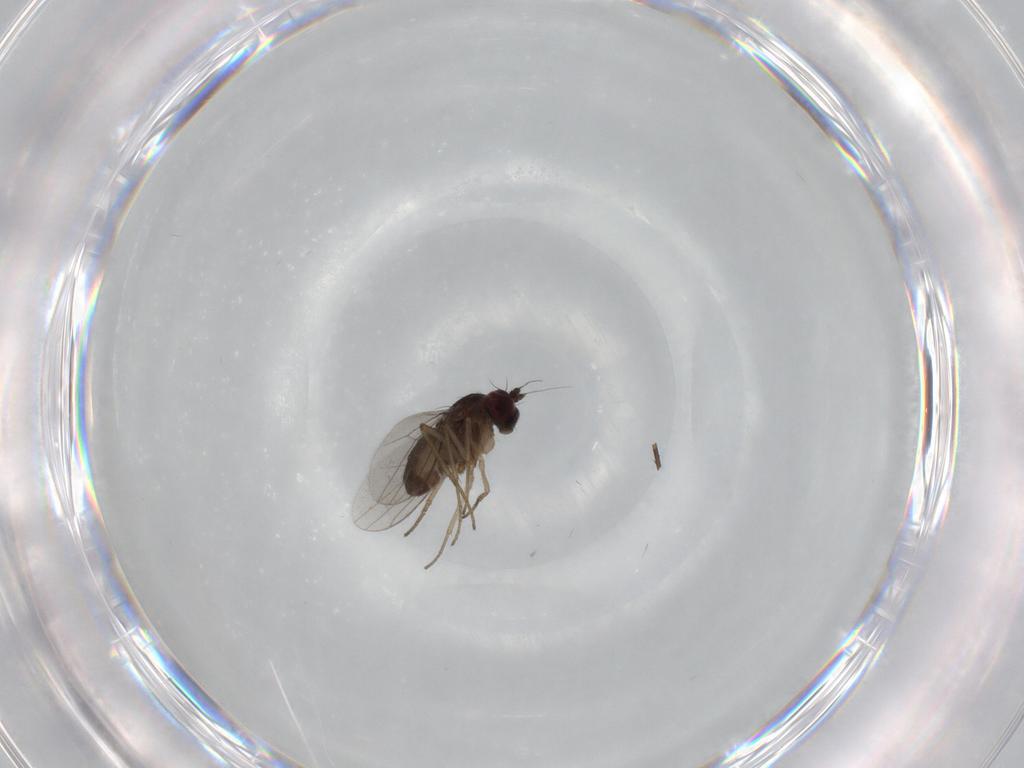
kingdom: Animalia
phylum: Arthropoda
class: Insecta
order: Diptera
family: Dolichopodidae
